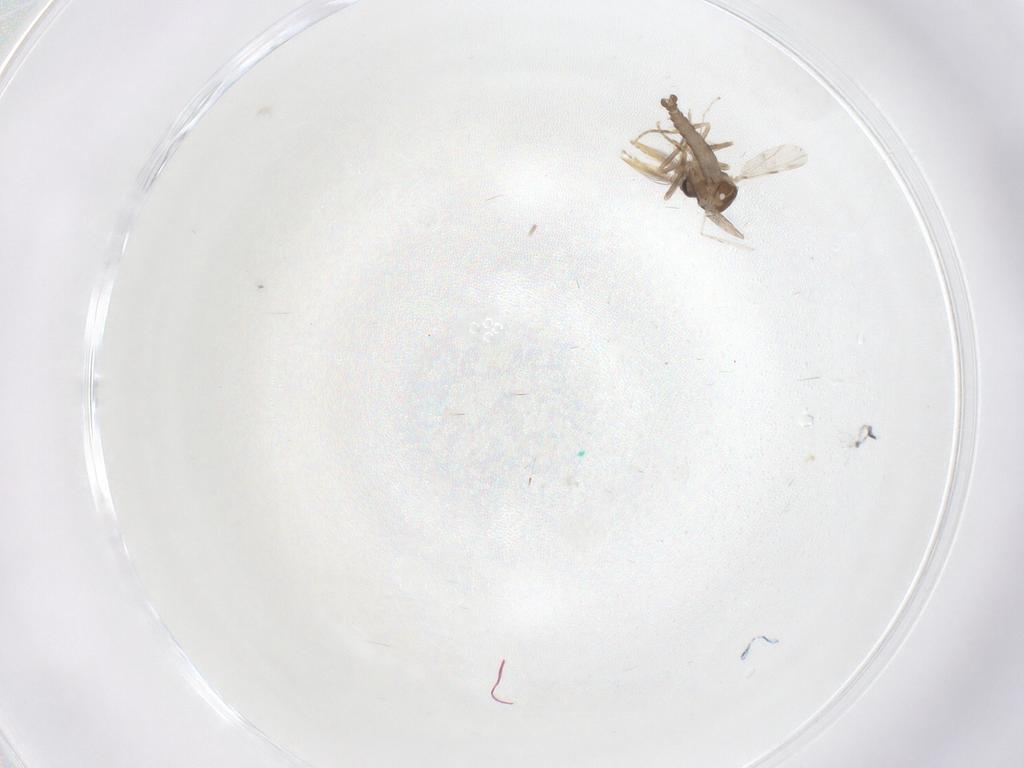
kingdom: Animalia
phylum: Arthropoda
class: Insecta
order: Diptera
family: Ceratopogonidae
